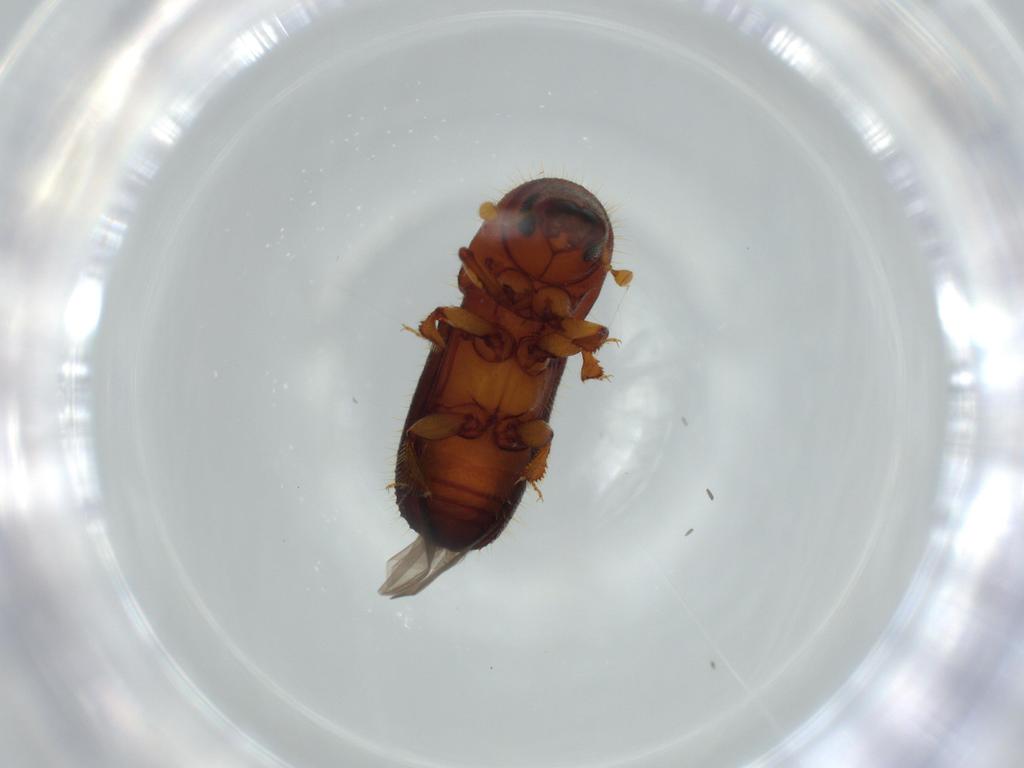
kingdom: Animalia
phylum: Arthropoda
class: Insecta
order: Coleoptera
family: Curculionidae
